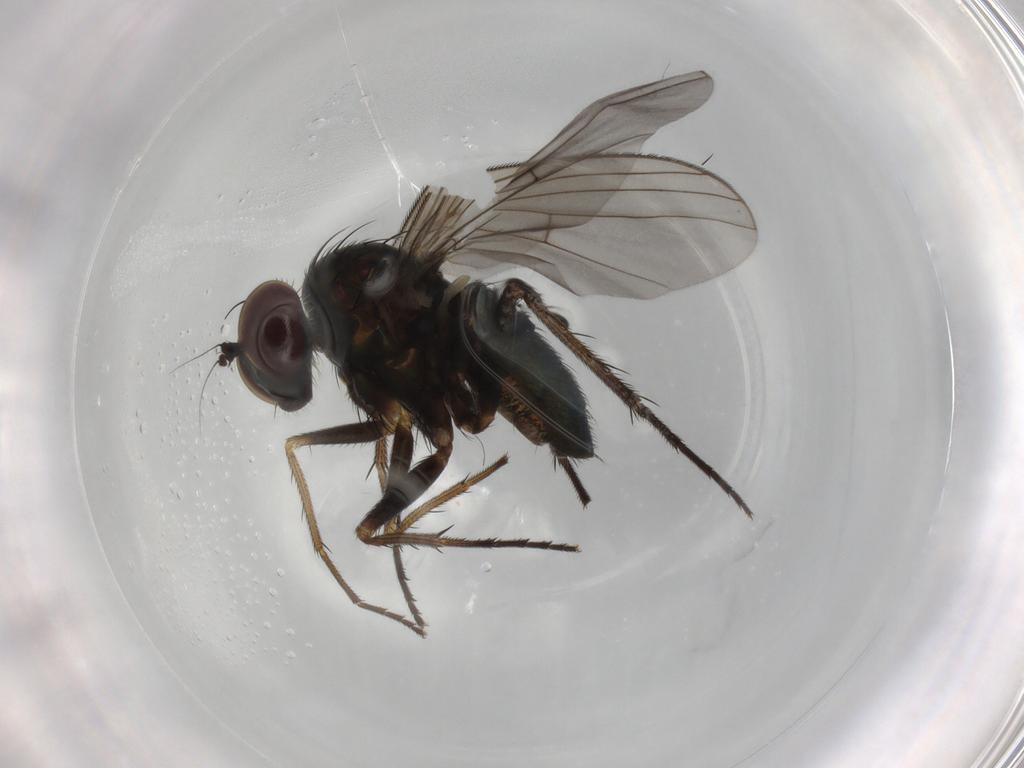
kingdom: Animalia
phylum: Arthropoda
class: Insecta
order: Diptera
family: Dolichopodidae
